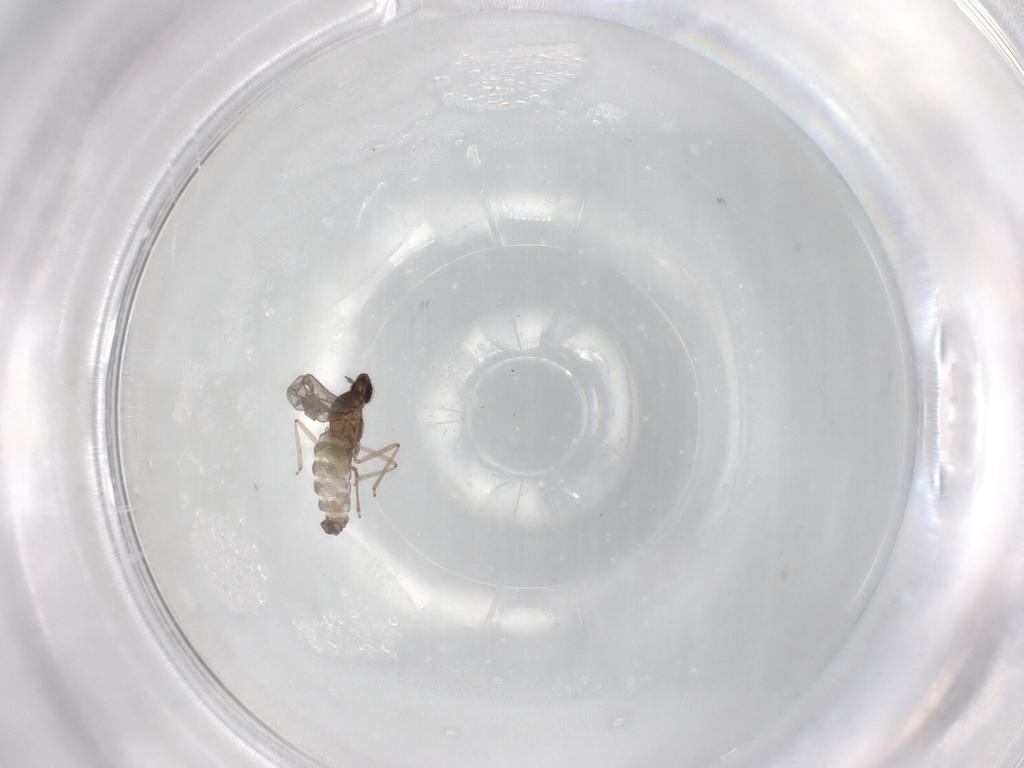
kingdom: Animalia
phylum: Arthropoda
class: Insecta
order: Diptera
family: Cecidomyiidae
